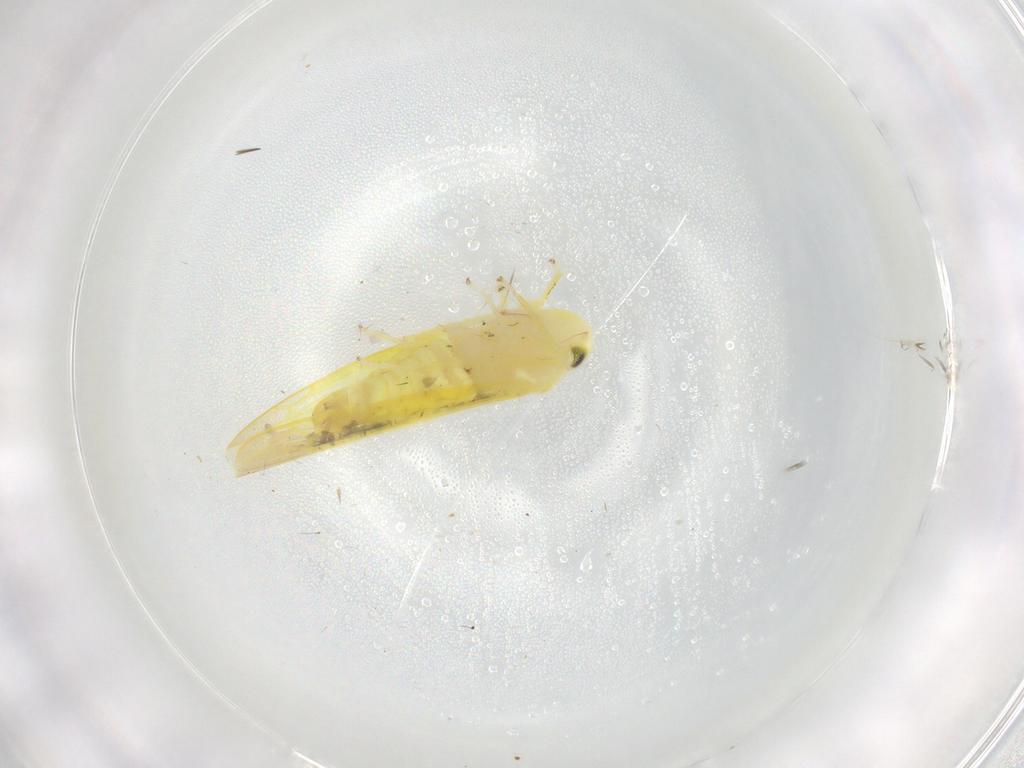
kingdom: Animalia
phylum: Arthropoda
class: Insecta
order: Hemiptera
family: Cicadellidae
